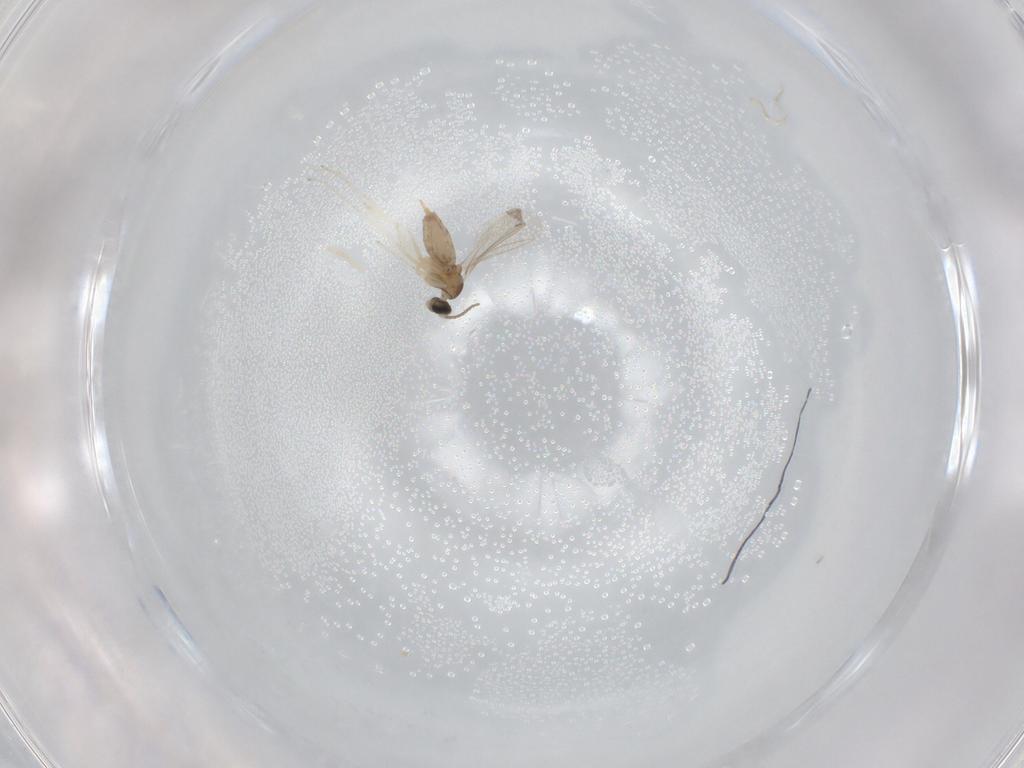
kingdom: Animalia
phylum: Arthropoda
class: Insecta
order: Diptera
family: Cecidomyiidae
